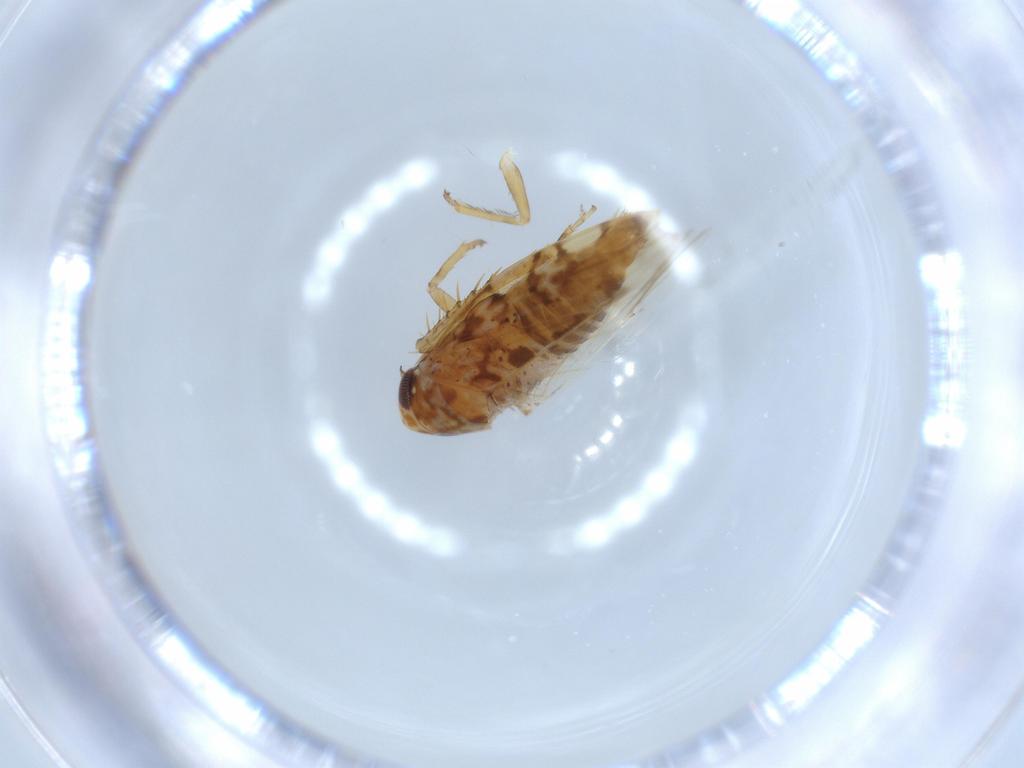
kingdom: Animalia
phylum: Arthropoda
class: Insecta
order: Hemiptera
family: Cicadellidae
